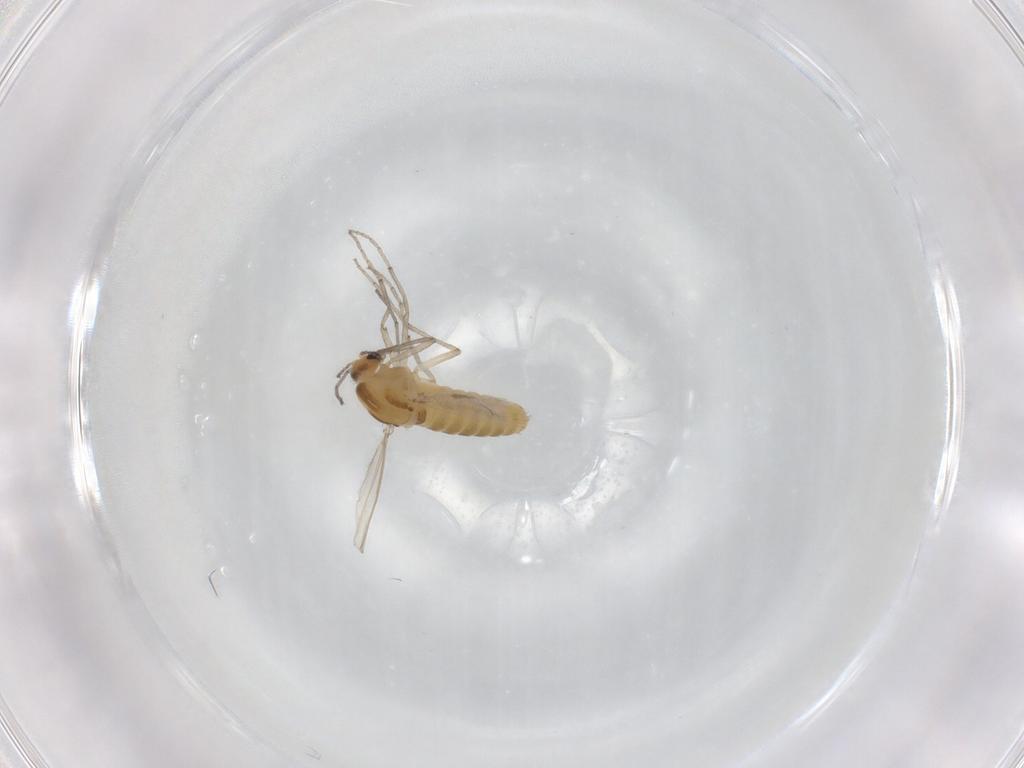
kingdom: Animalia
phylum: Arthropoda
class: Insecta
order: Diptera
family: Chironomidae
